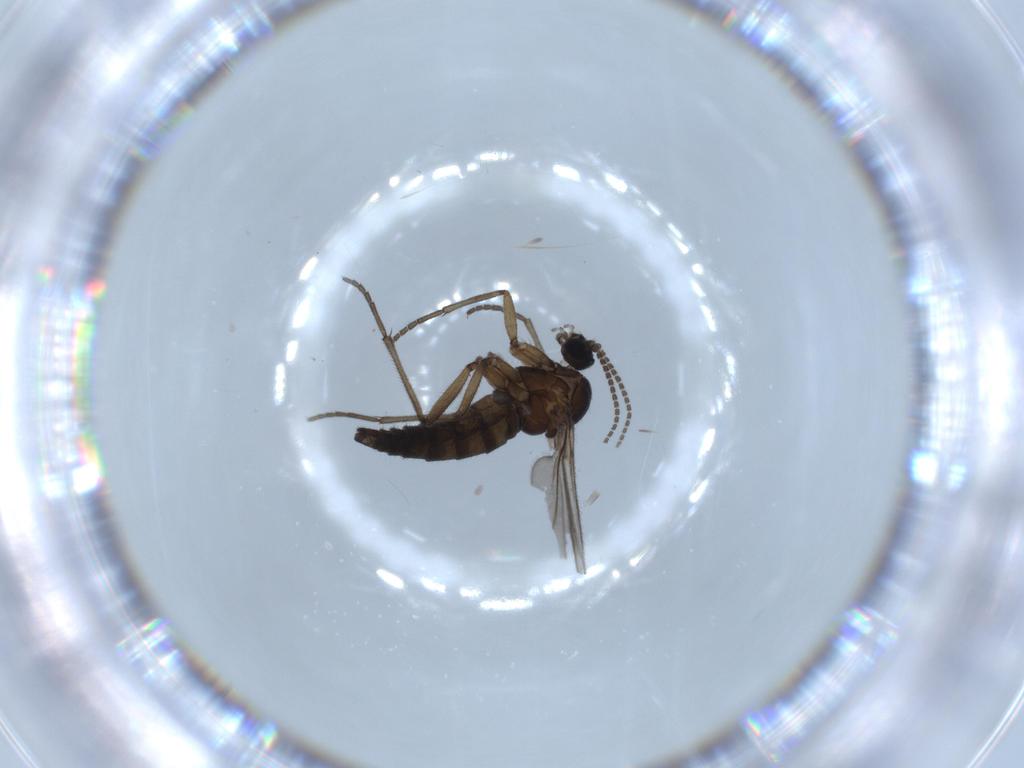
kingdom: Animalia
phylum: Arthropoda
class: Insecta
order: Diptera
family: Sciaridae
